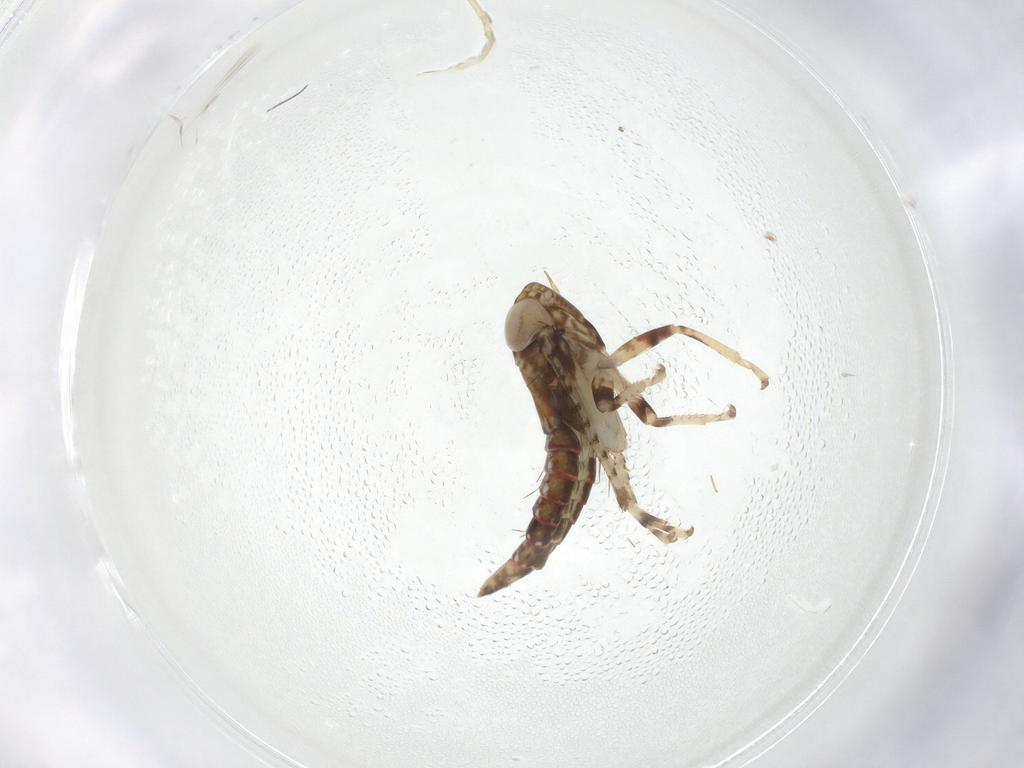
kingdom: Animalia
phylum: Arthropoda
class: Insecta
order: Hemiptera
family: Cicadellidae
